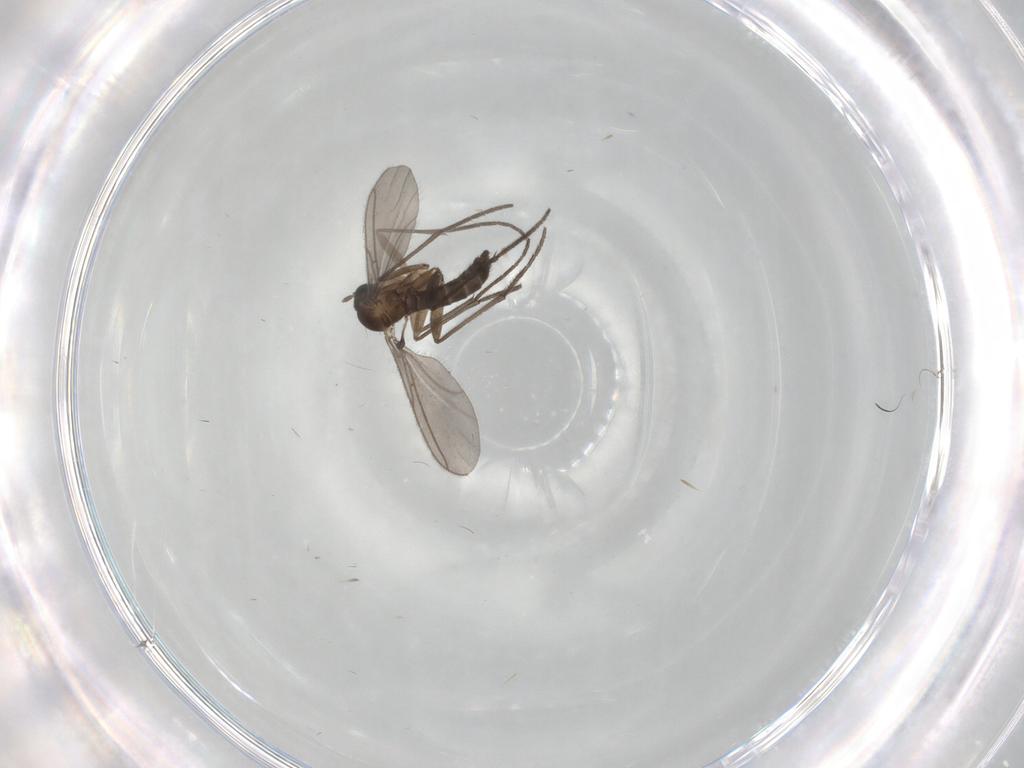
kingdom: Animalia
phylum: Arthropoda
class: Insecta
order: Diptera
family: Sciaridae
